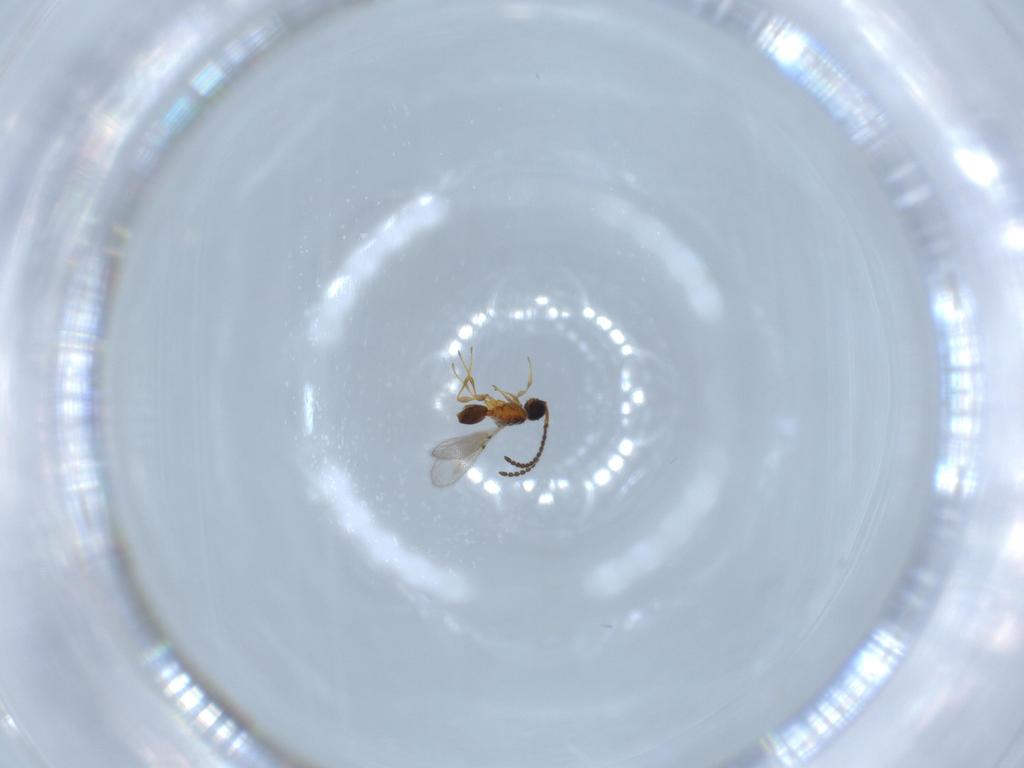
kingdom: Animalia
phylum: Arthropoda
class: Insecta
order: Hymenoptera
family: Diapriidae
